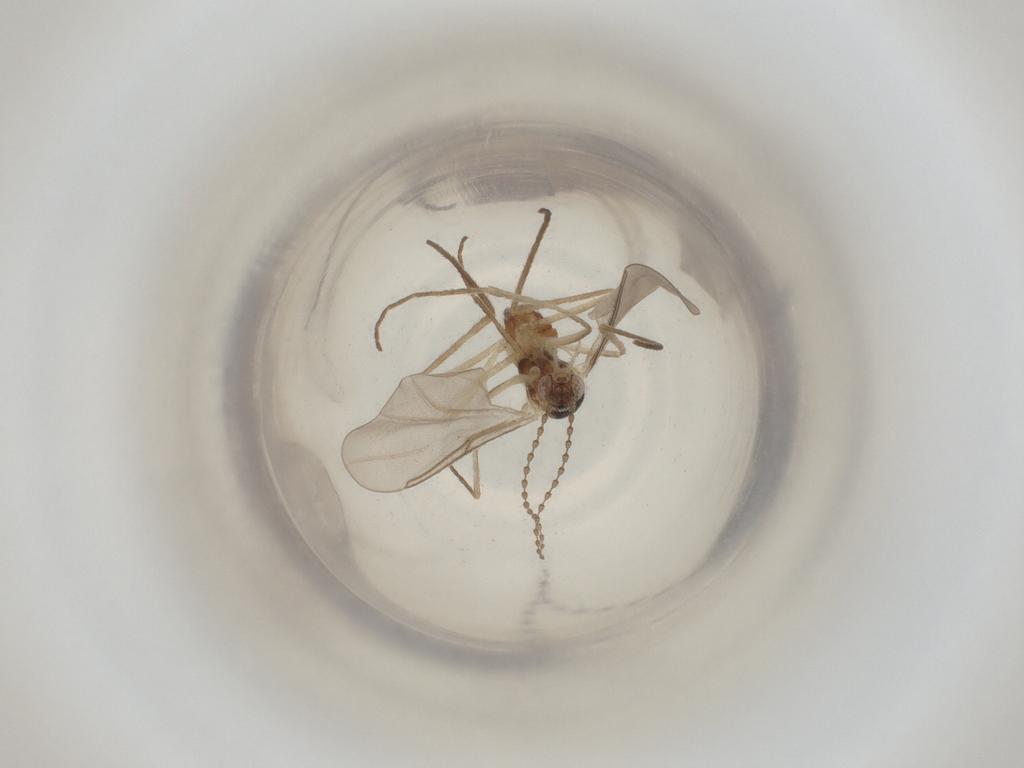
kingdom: Animalia
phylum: Arthropoda
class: Insecta
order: Diptera
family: Cecidomyiidae
